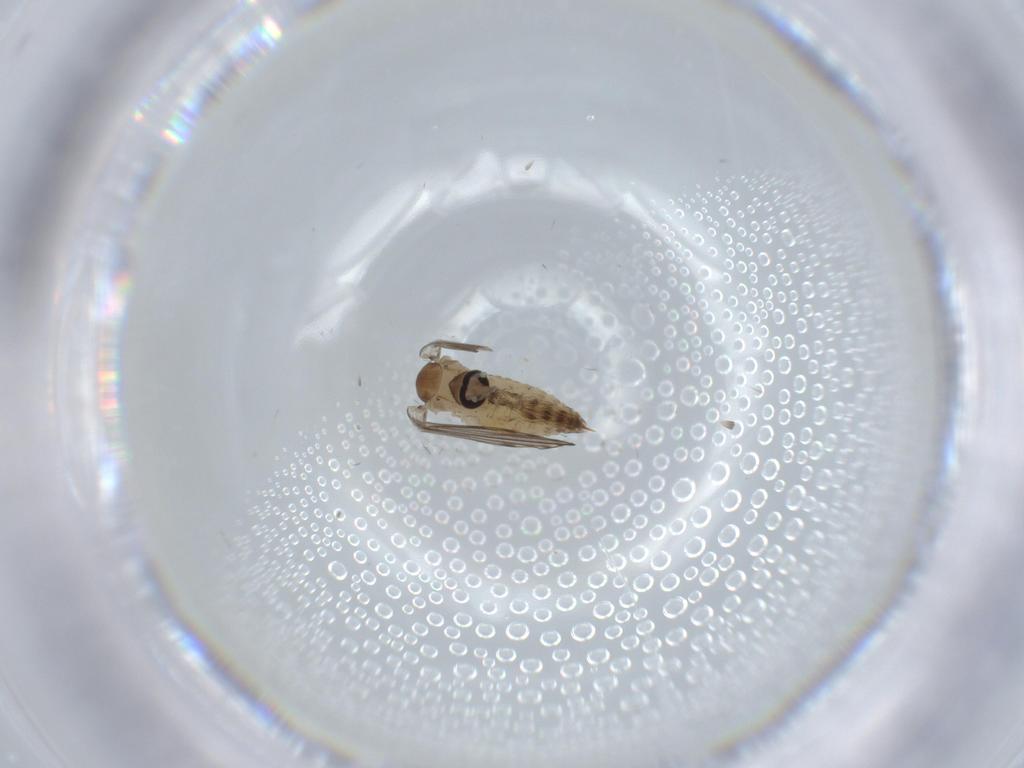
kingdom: Animalia
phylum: Arthropoda
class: Insecta
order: Diptera
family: Psychodidae
